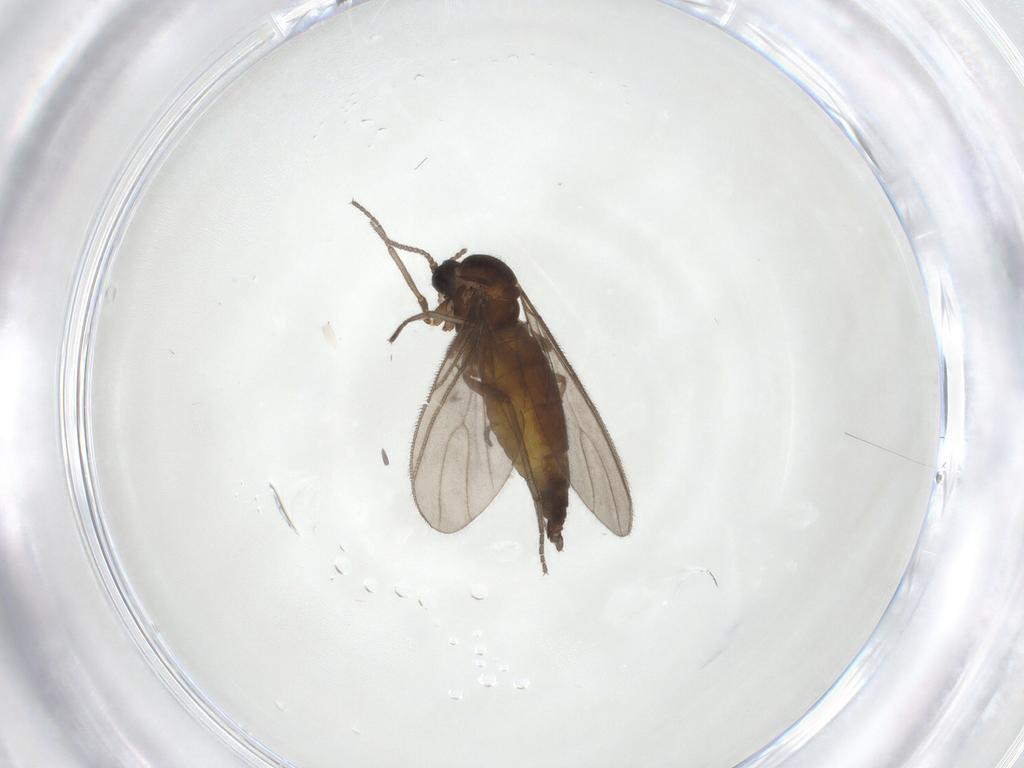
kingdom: Animalia
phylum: Arthropoda
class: Insecta
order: Diptera
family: Sciaridae
